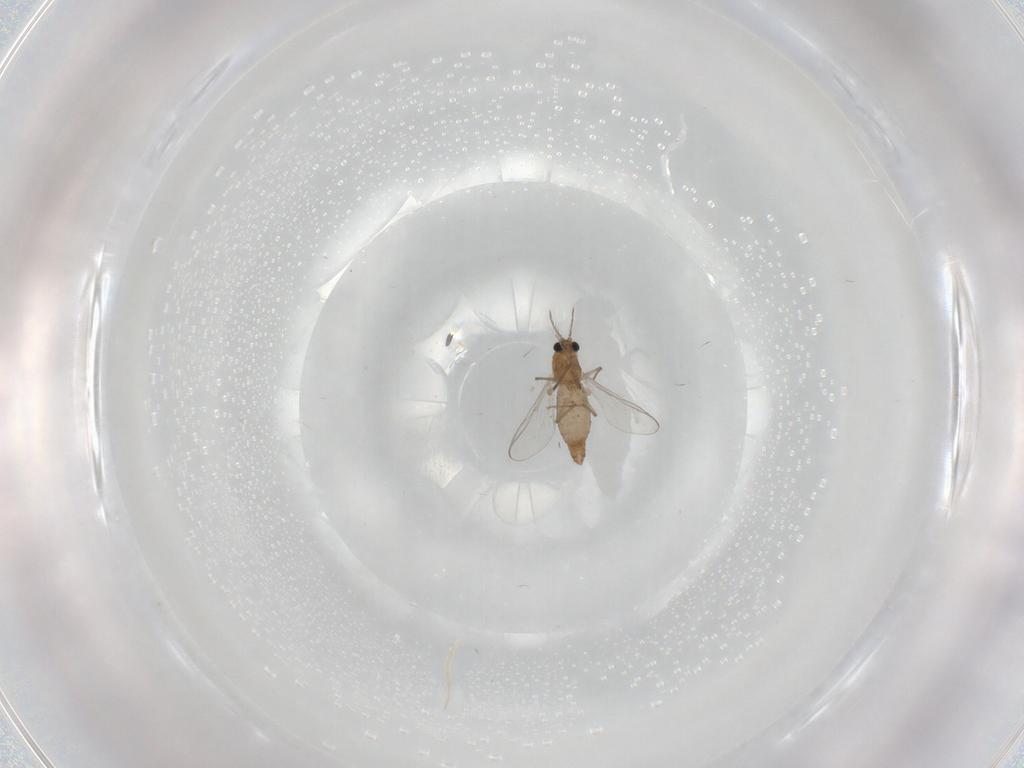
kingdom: Animalia
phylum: Arthropoda
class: Insecta
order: Diptera
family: Chironomidae
